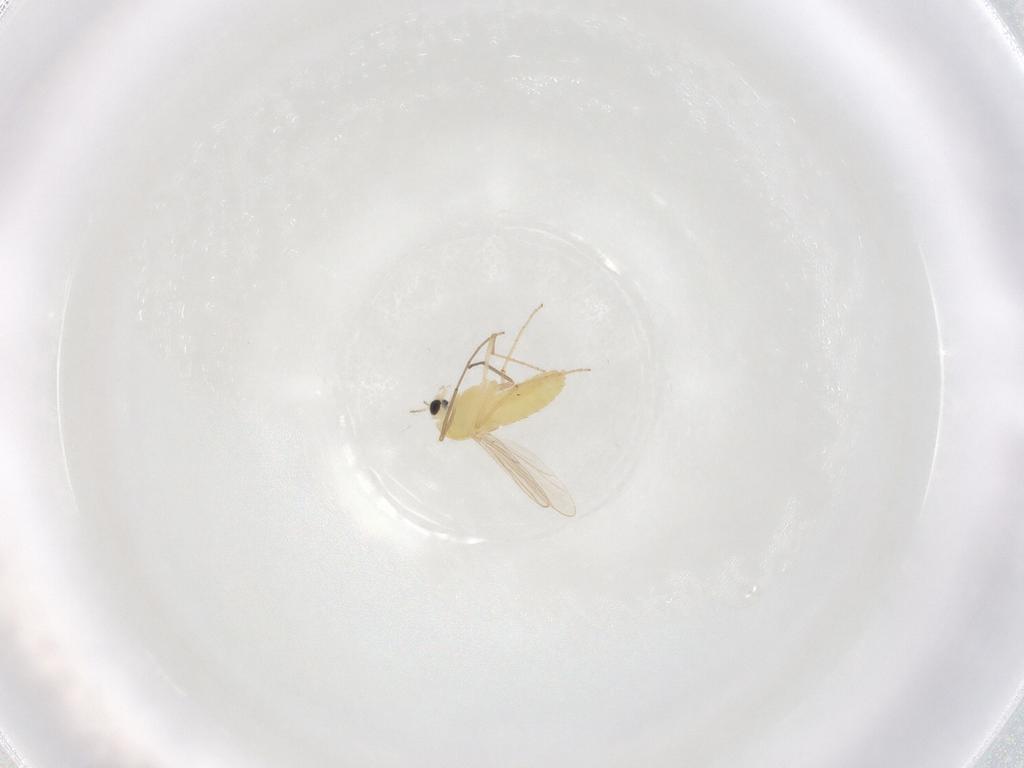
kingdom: Animalia
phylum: Arthropoda
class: Insecta
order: Diptera
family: Chironomidae
